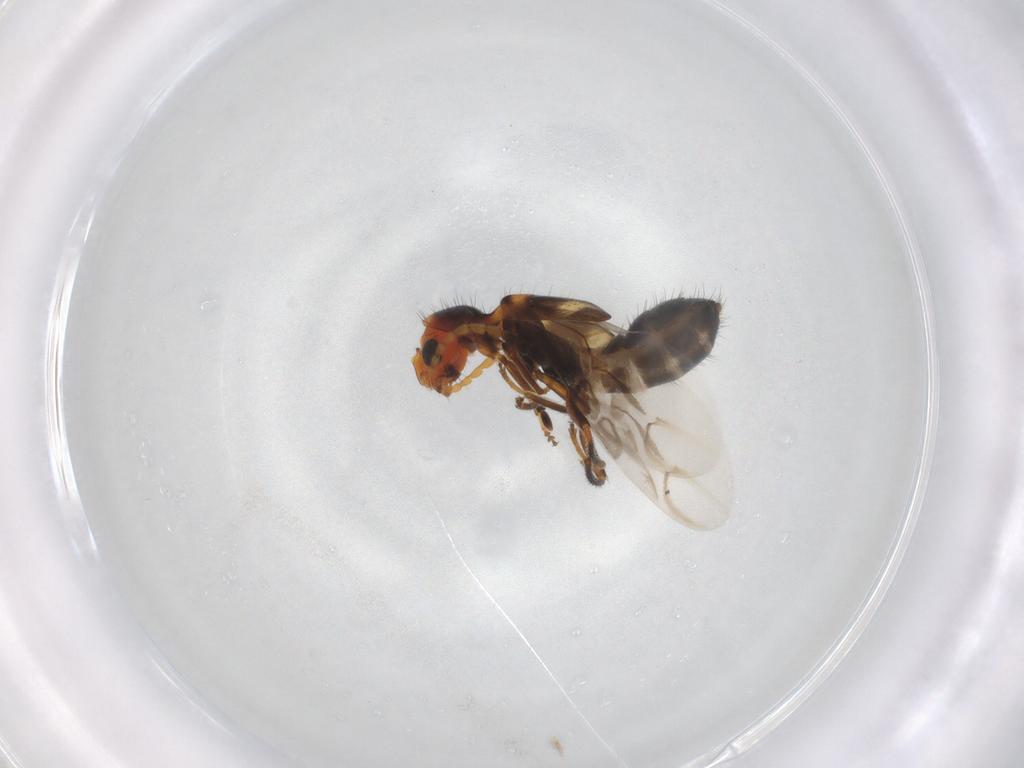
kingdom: Animalia
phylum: Arthropoda
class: Insecta
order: Coleoptera
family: Melyridae
